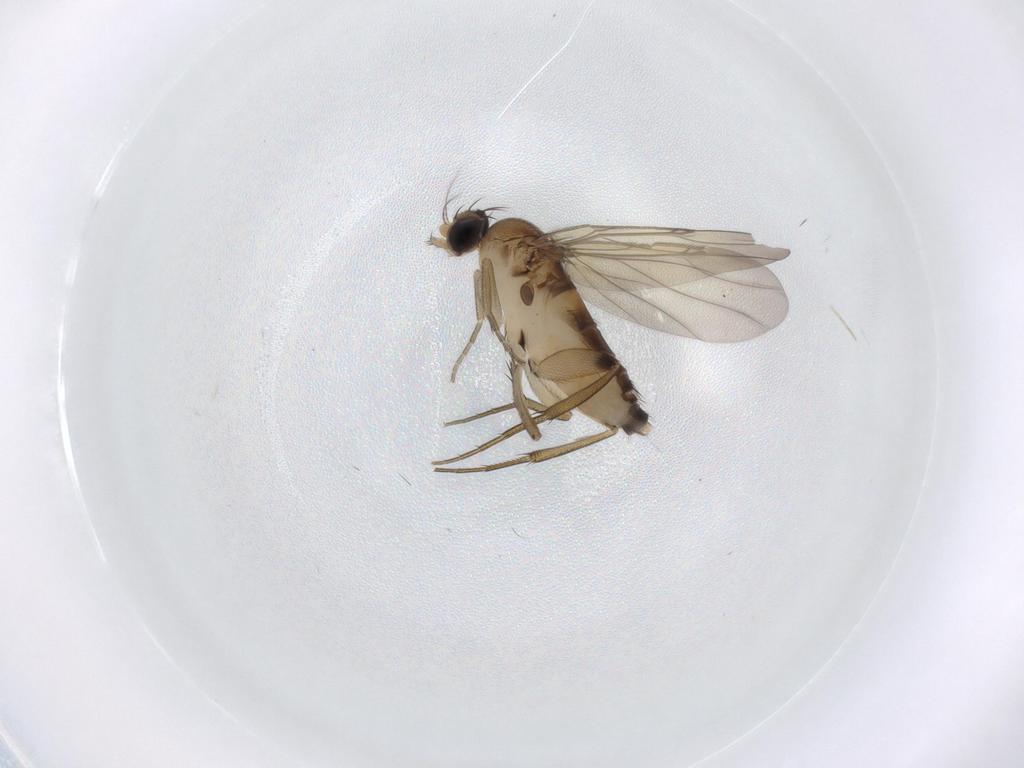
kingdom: Animalia
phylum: Arthropoda
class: Insecta
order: Diptera
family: Phoridae
